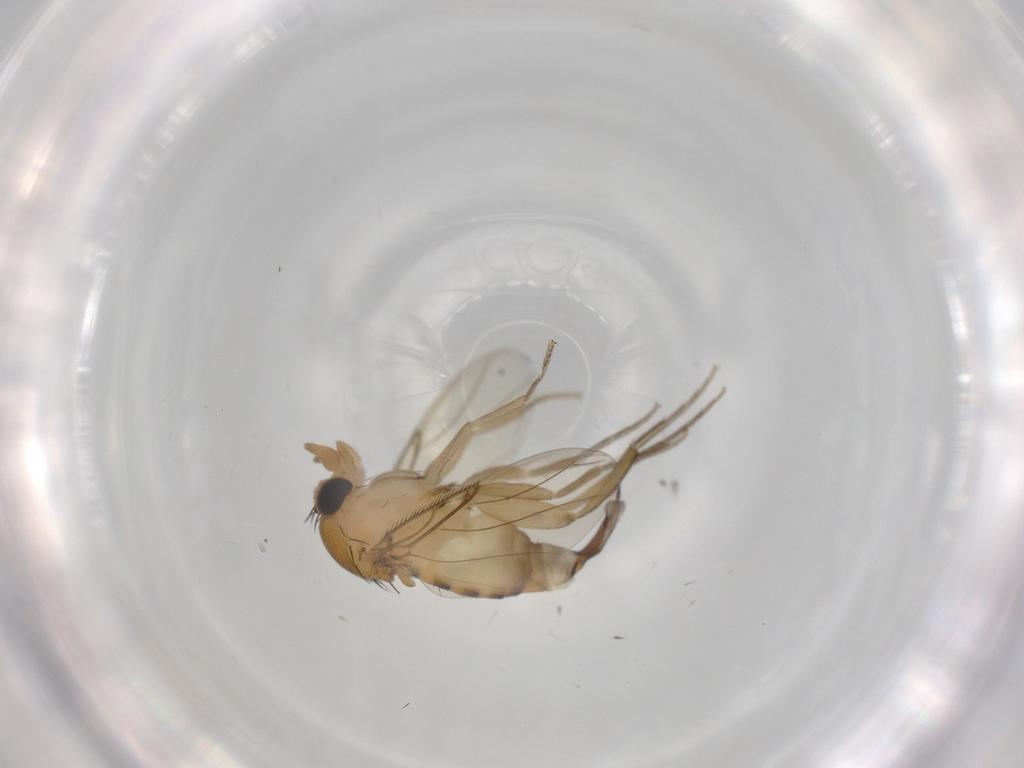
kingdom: Animalia
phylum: Arthropoda
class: Insecta
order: Diptera
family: Phoridae
